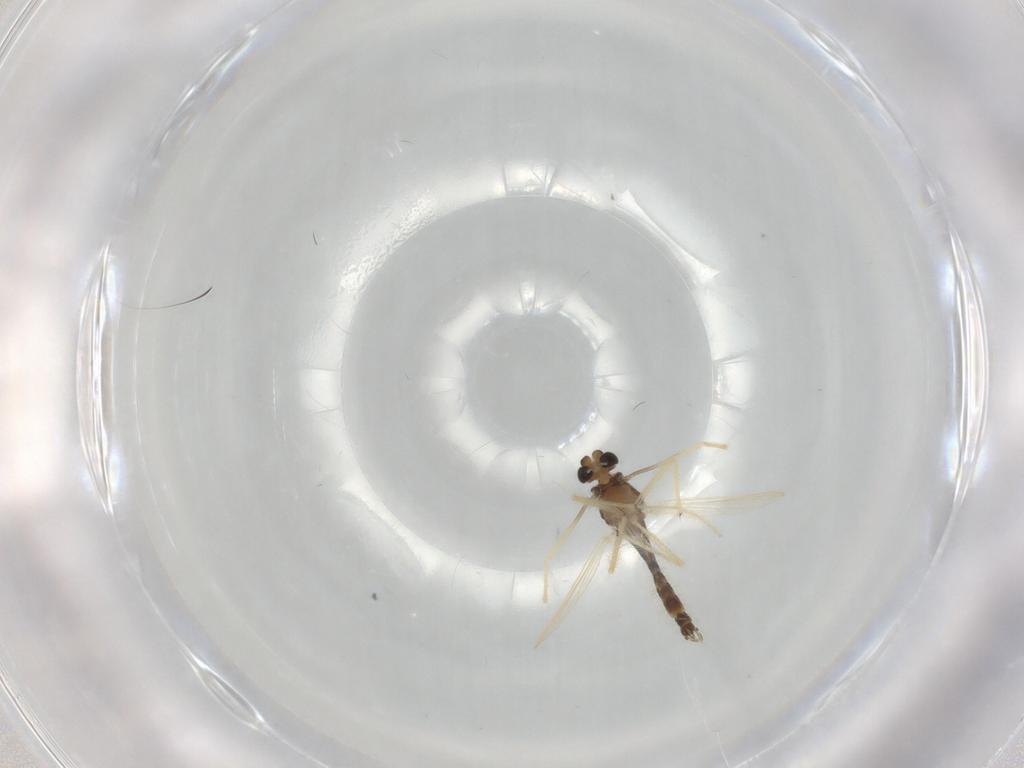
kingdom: Animalia
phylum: Arthropoda
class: Insecta
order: Diptera
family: Chironomidae
